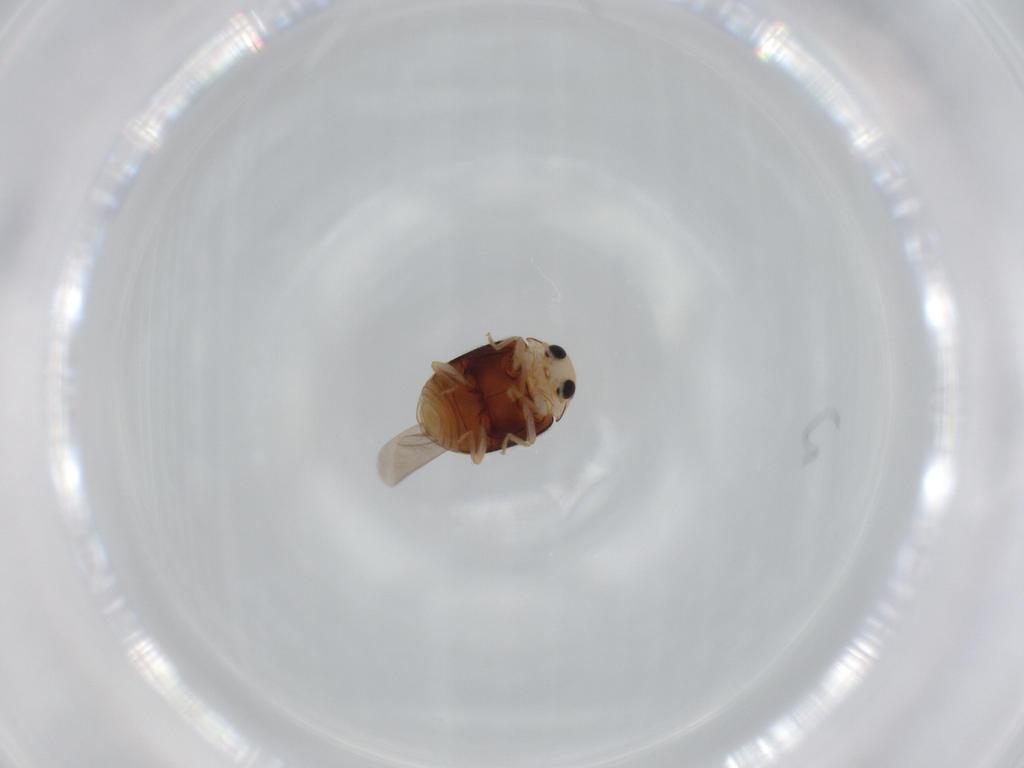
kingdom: Animalia
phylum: Arthropoda
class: Insecta
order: Coleoptera
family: Coccinellidae
